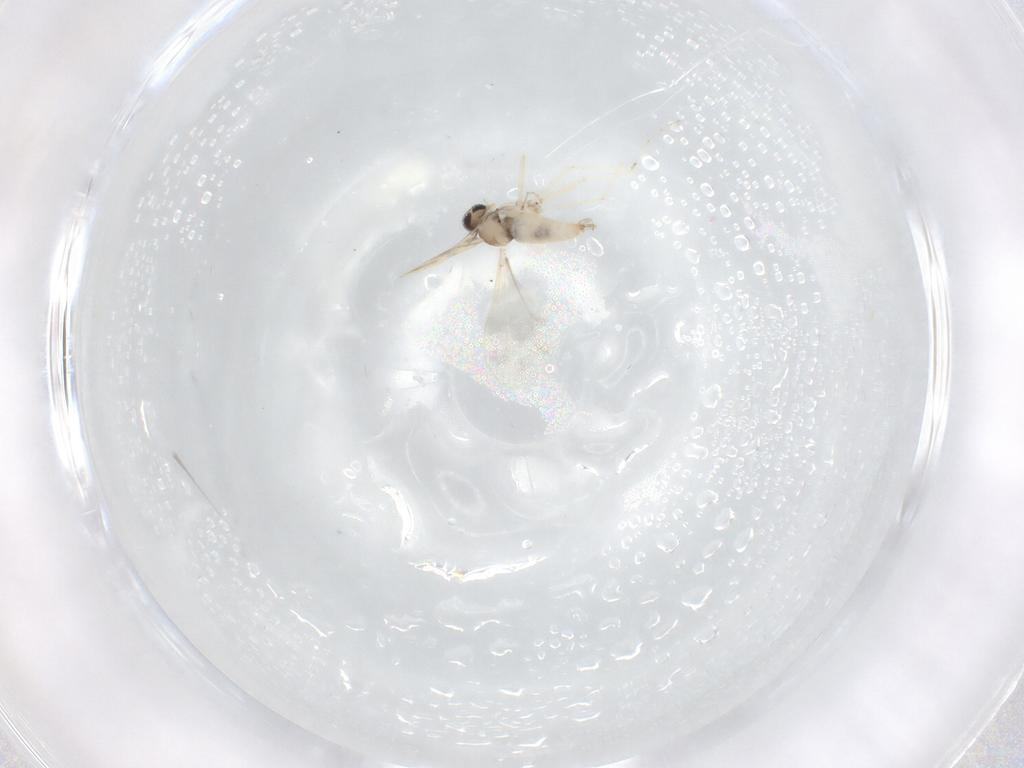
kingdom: Animalia
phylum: Arthropoda
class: Insecta
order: Diptera
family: Cecidomyiidae
